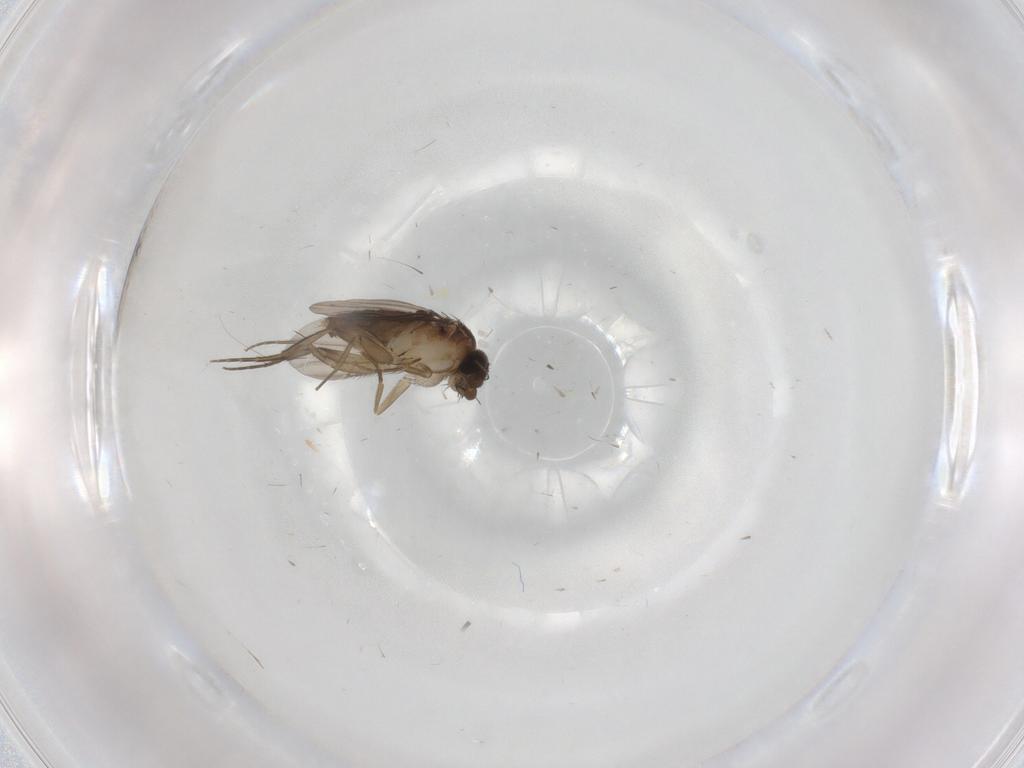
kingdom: Animalia
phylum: Arthropoda
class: Insecta
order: Diptera
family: Phoridae
